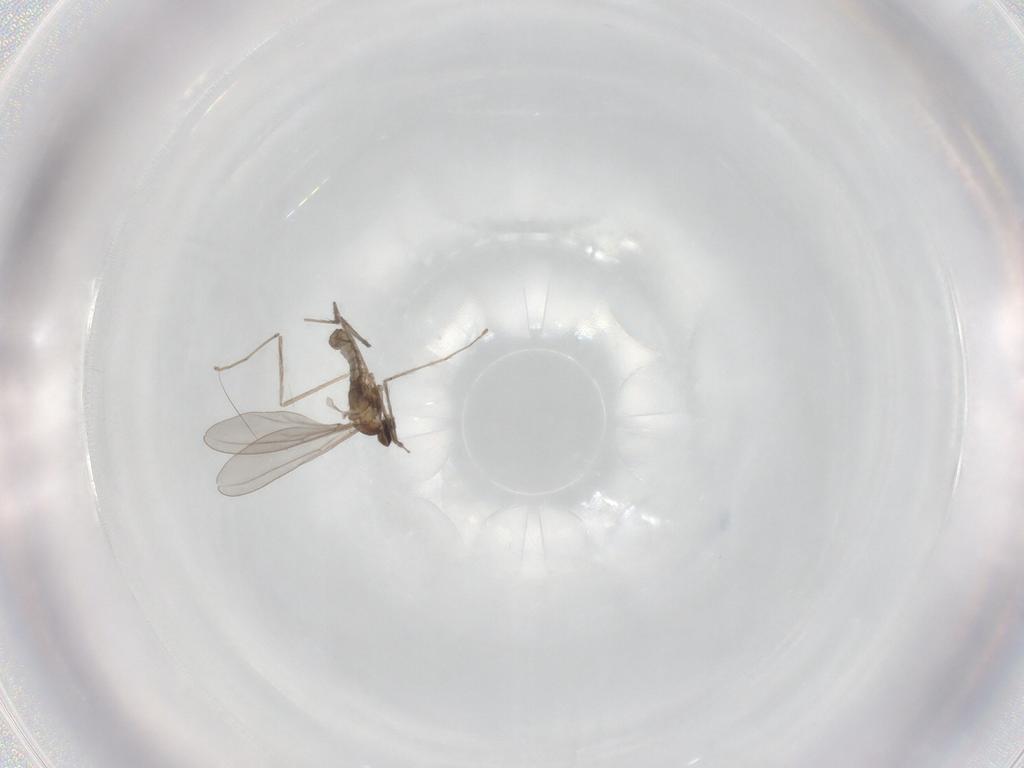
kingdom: Animalia
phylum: Arthropoda
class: Insecta
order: Diptera
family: Cecidomyiidae
